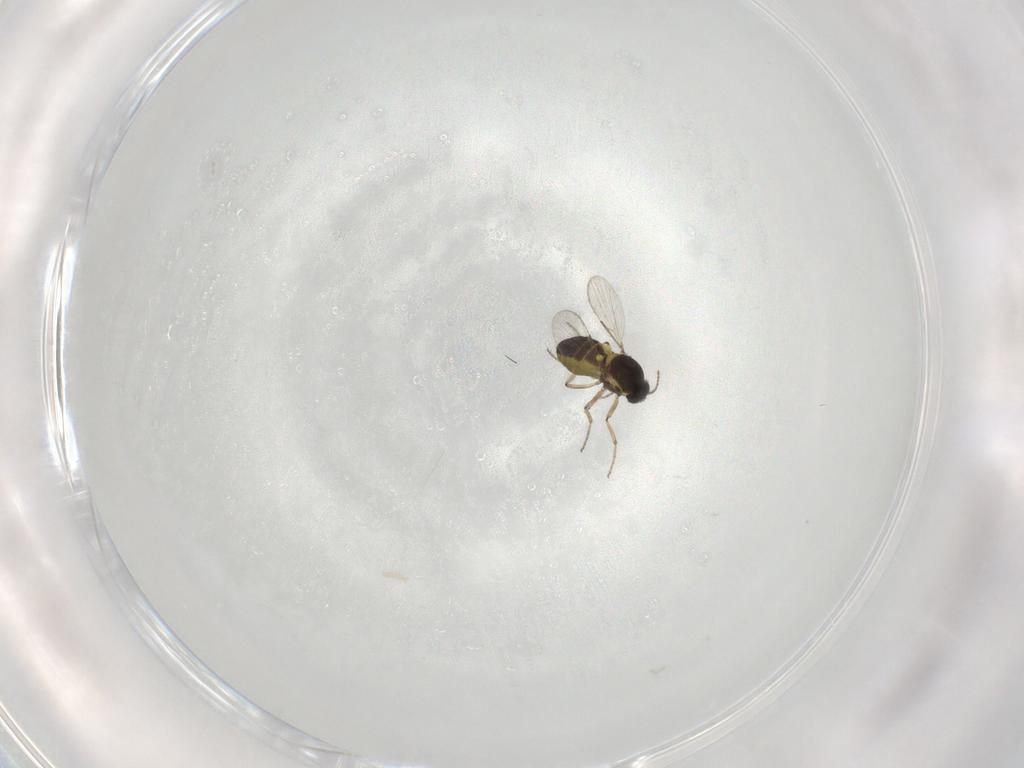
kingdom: Animalia
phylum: Arthropoda
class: Insecta
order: Diptera
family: Ceratopogonidae
